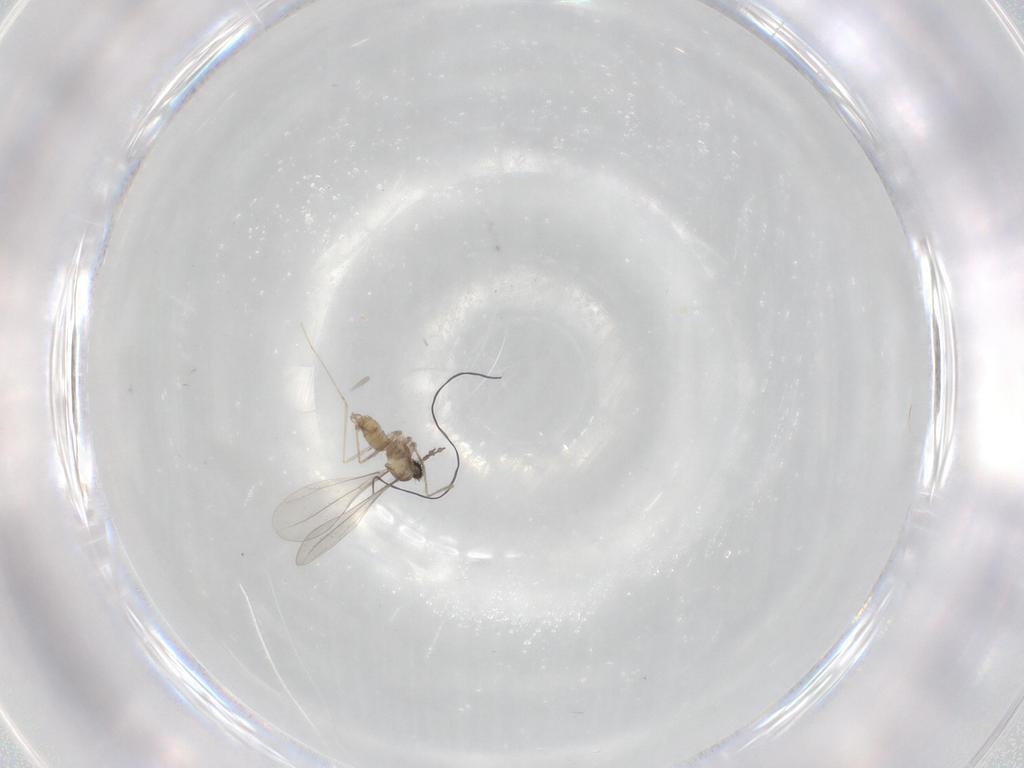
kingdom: Animalia
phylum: Arthropoda
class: Insecta
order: Diptera
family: Cecidomyiidae
